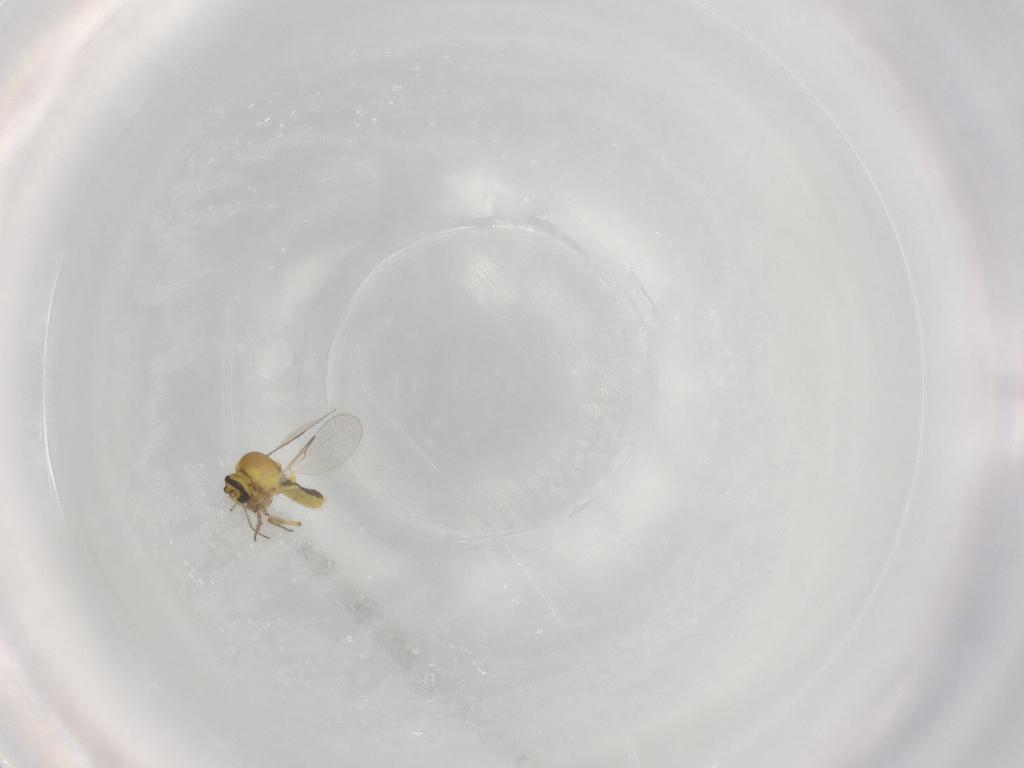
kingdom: Animalia
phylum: Arthropoda
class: Insecta
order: Diptera
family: Ceratopogonidae
